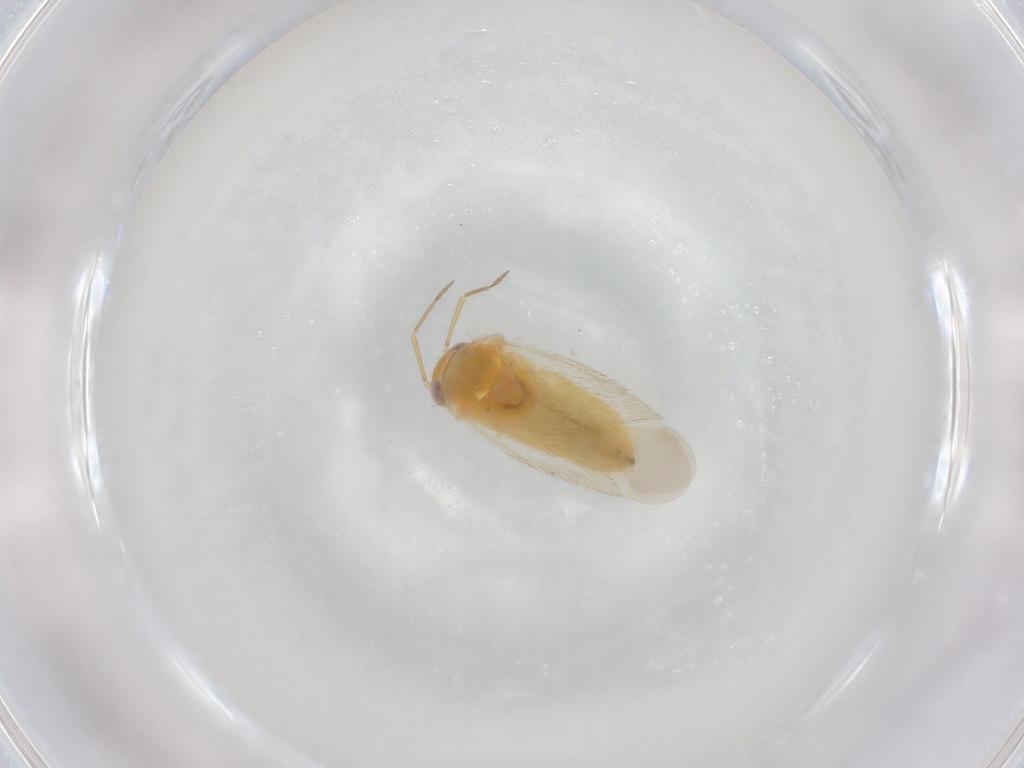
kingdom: Animalia
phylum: Arthropoda
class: Insecta
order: Hemiptera
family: Miridae
